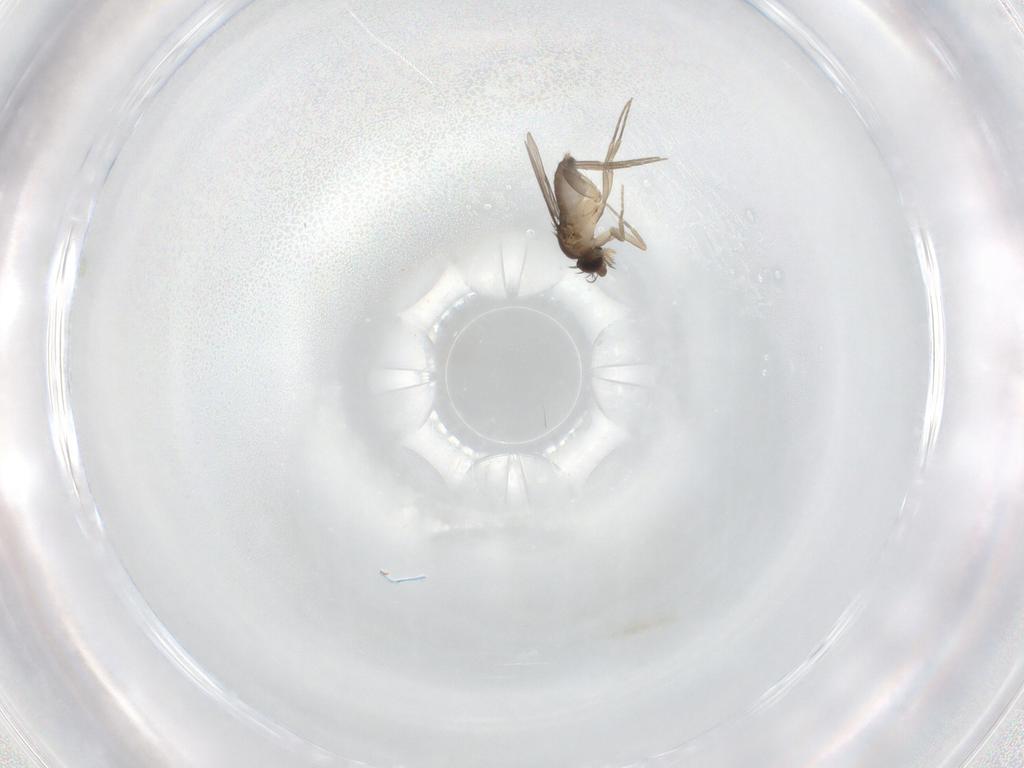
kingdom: Animalia
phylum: Arthropoda
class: Insecta
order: Diptera
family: Phoridae
